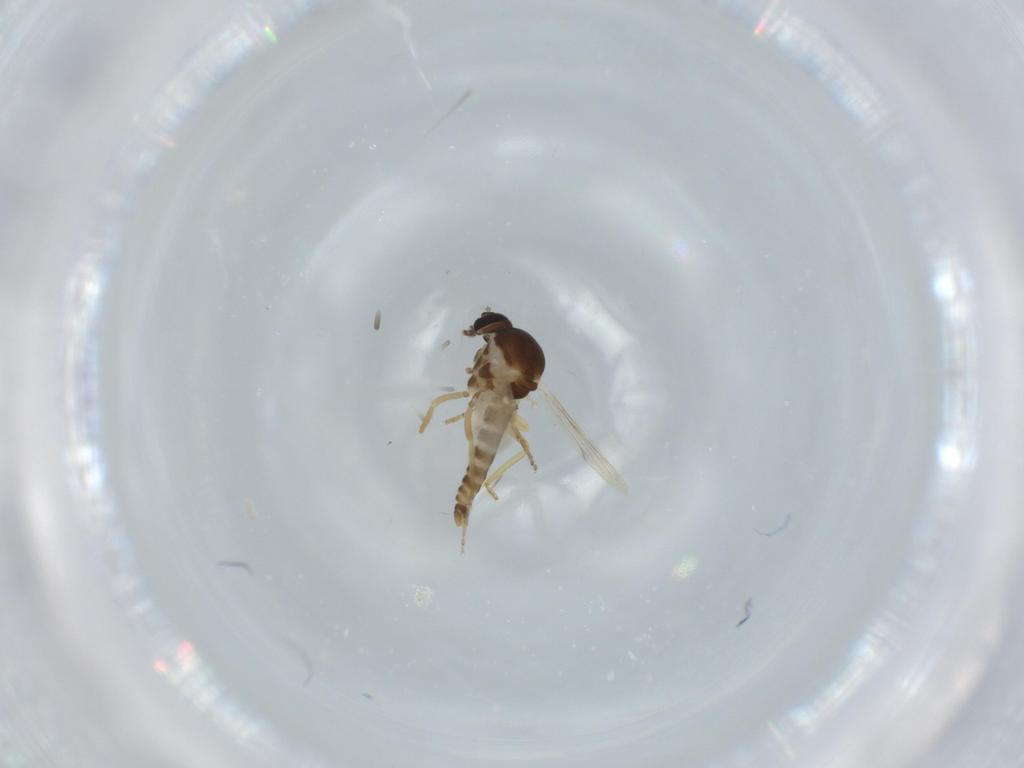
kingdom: Animalia
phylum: Arthropoda
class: Insecta
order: Diptera
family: Ceratopogonidae
